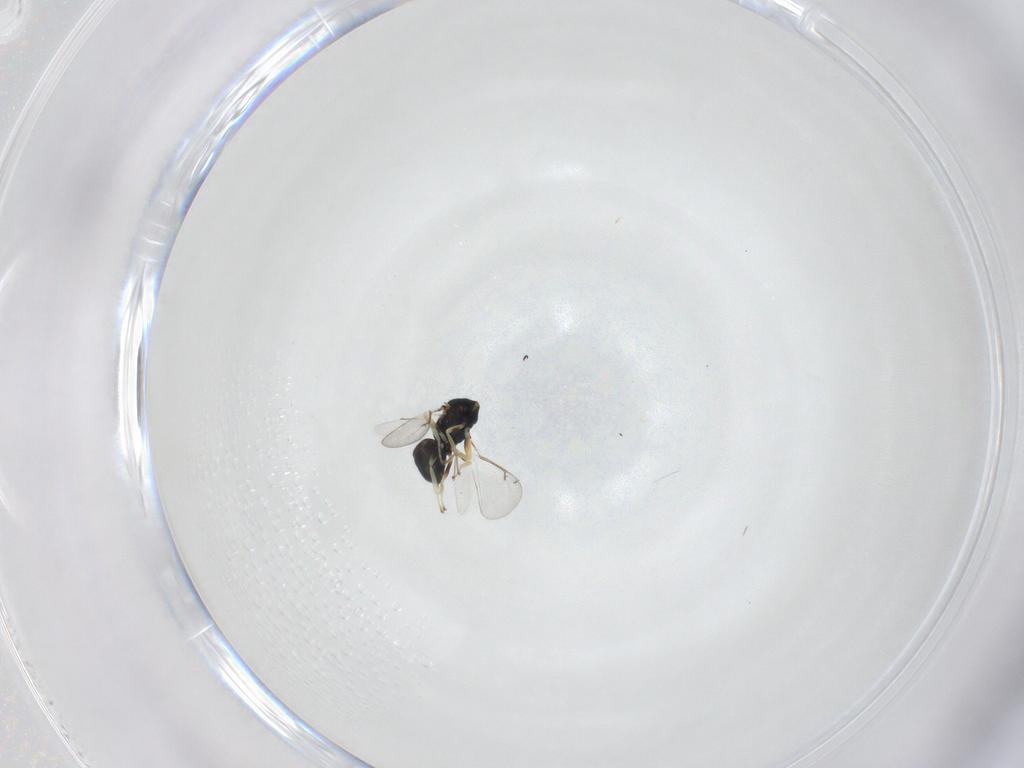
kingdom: Animalia
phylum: Arthropoda
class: Insecta
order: Hymenoptera
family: Eulophidae
